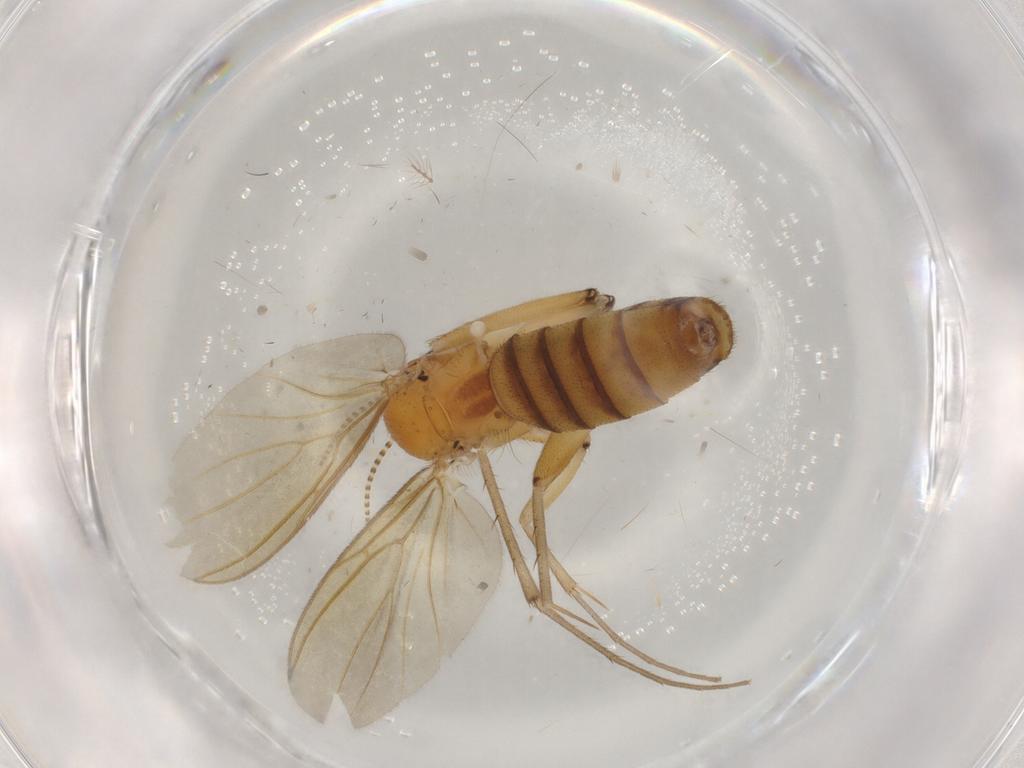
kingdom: Animalia
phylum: Arthropoda
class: Insecta
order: Diptera
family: Mycetophilidae
